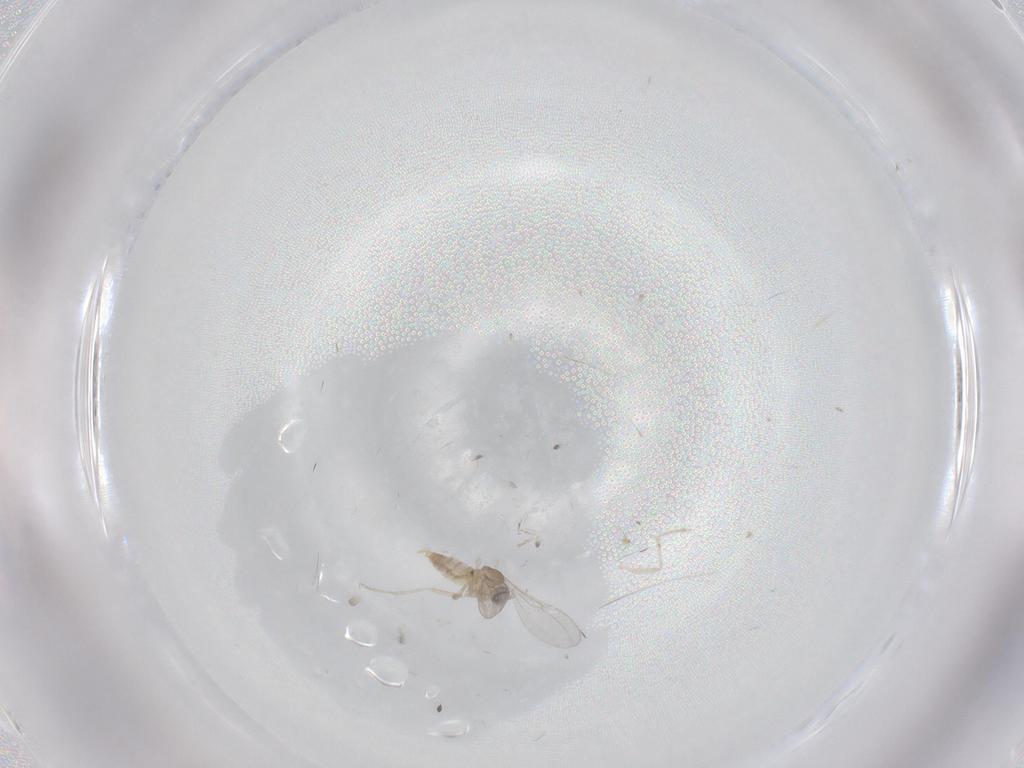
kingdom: Animalia
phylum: Arthropoda
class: Insecta
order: Diptera
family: Cecidomyiidae
